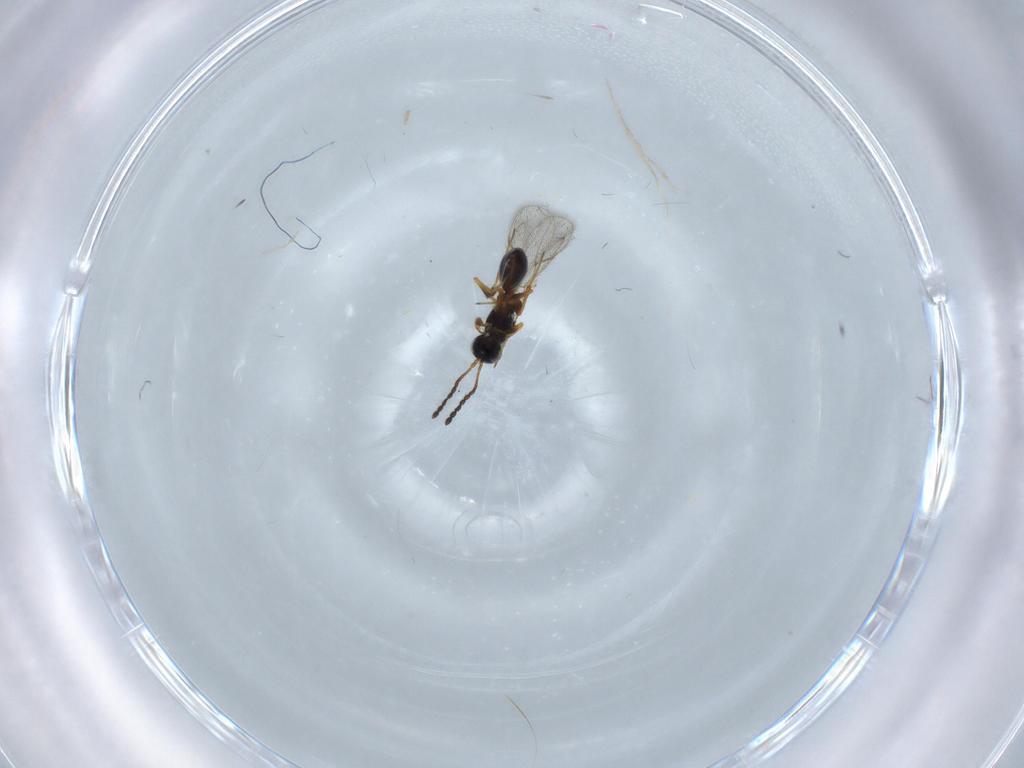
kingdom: Animalia
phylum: Arthropoda
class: Insecta
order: Hymenoptera
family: Figitidae
